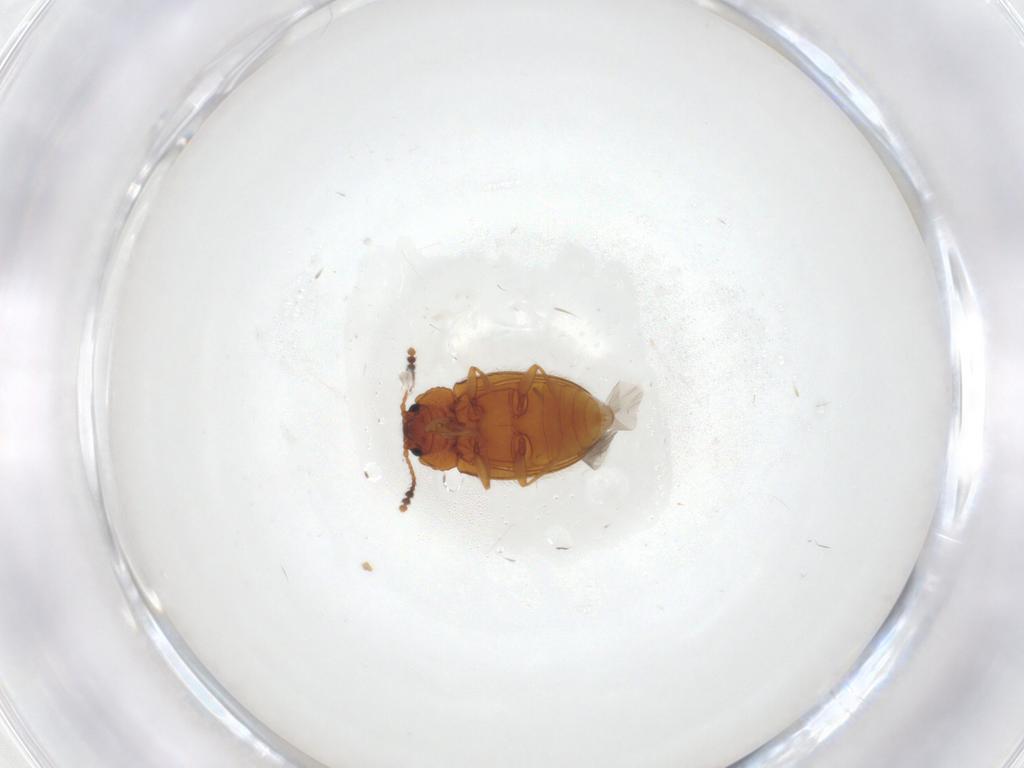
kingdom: Animalia
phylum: Arthropoda
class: Insecta
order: Coleoptera
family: Erotylidae
